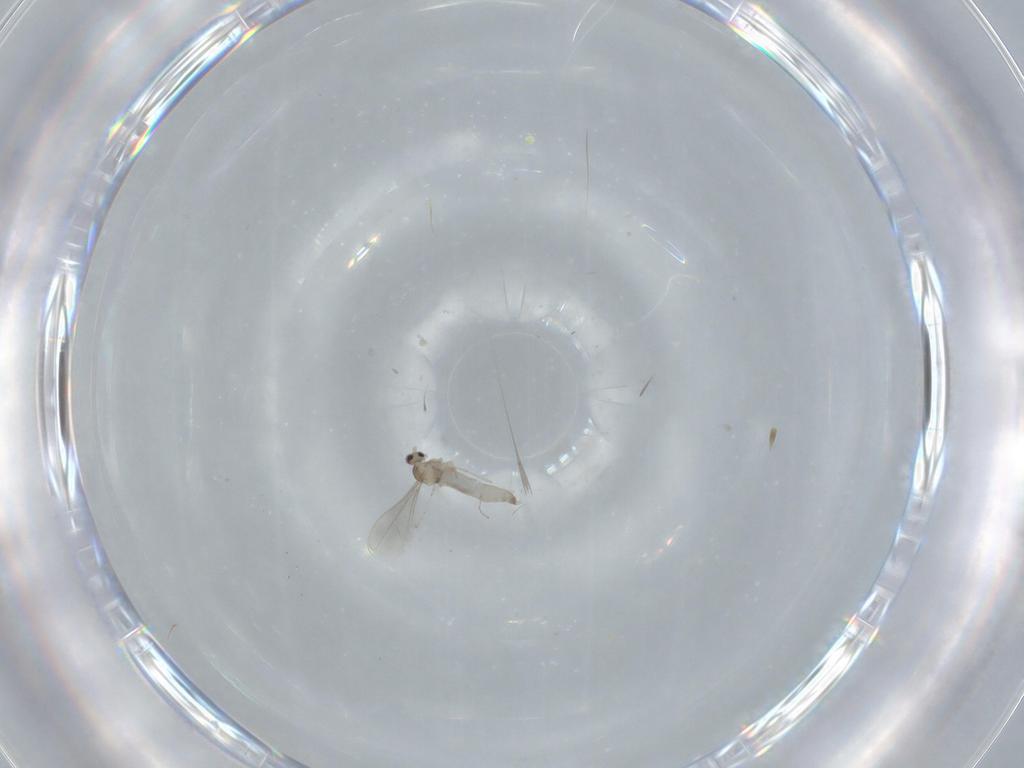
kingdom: Animalia
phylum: Arthropoda
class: Insecta
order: Diptera
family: Cecidomyiidae
